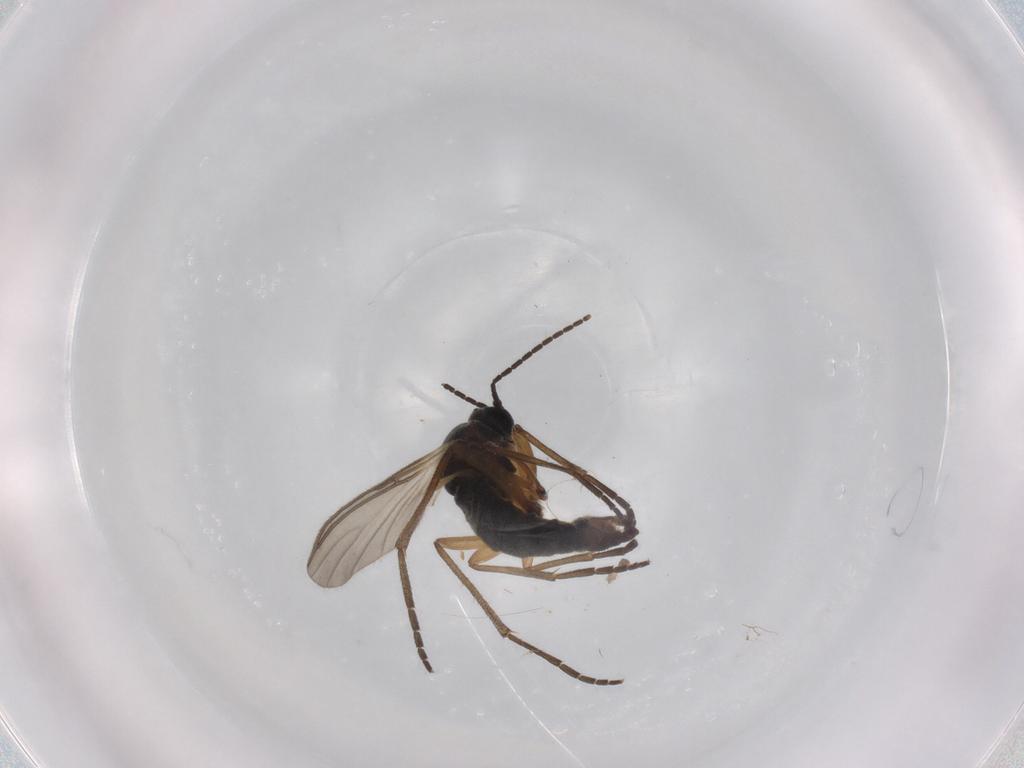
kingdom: Animalia
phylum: Arthropoda
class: Insecta
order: Diptera
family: Sciaridae
